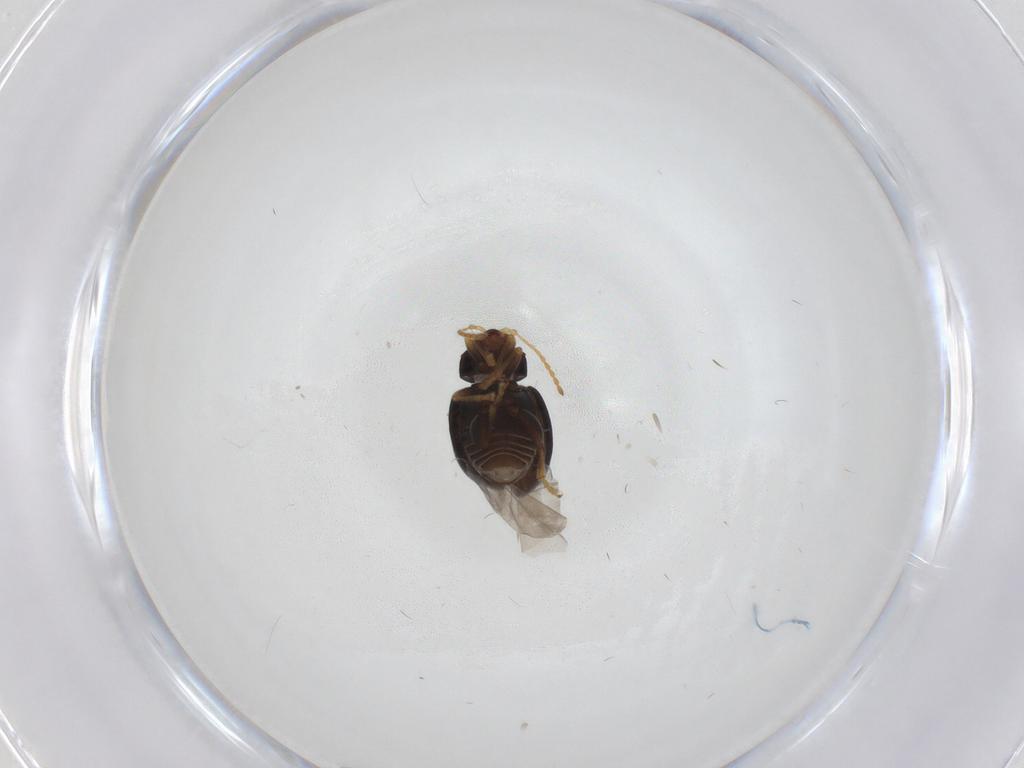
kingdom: Animalia
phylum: Arthropoda
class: Insecta
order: Coleoptera
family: Chrysomelidae
